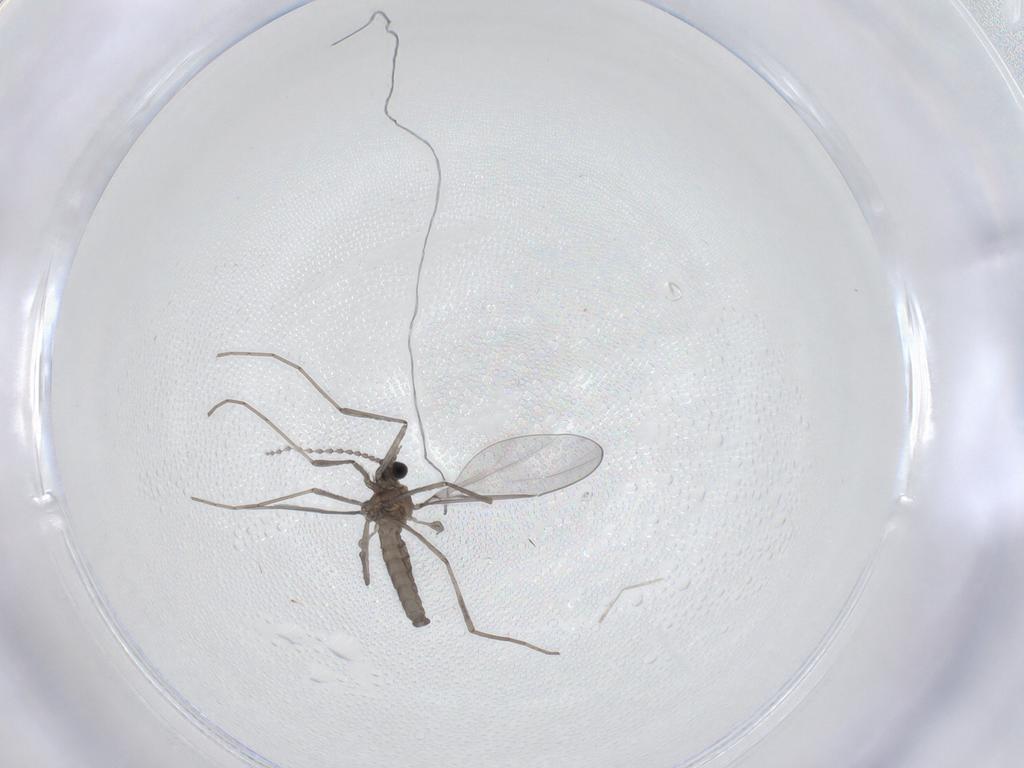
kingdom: Animalia
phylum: Arthropoda
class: Insecta
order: Diptera
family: Cecidomyiidae
